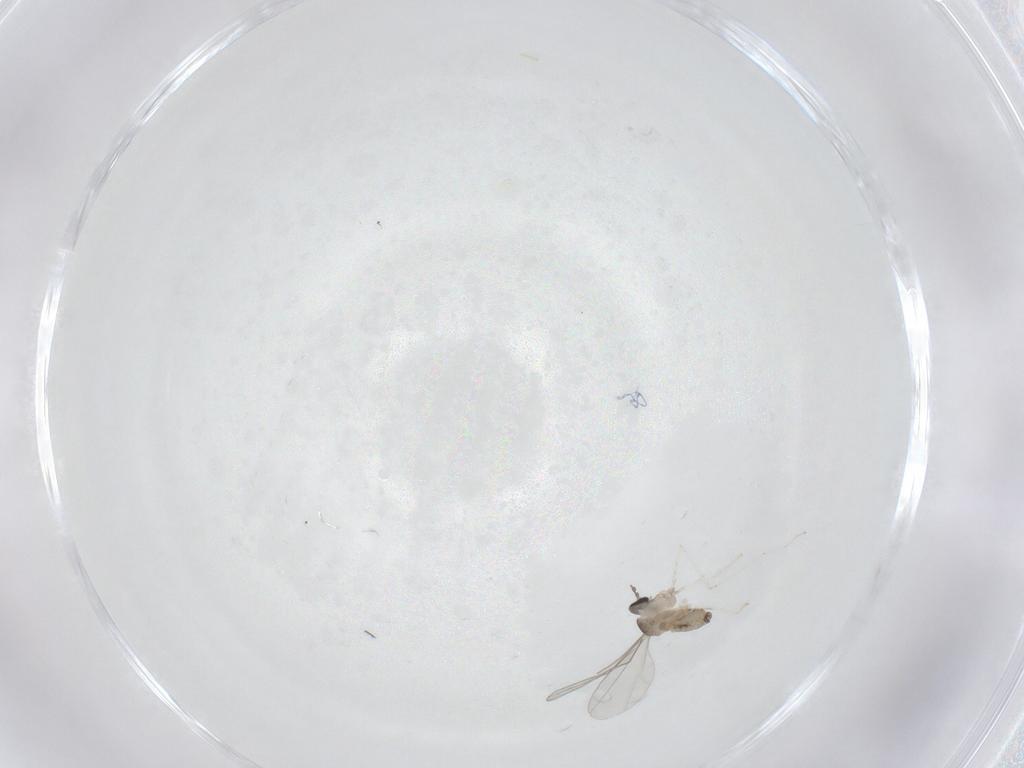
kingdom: Animalia
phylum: Arthropoda
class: Insecta
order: Diptera
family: Cecidomyiidae
